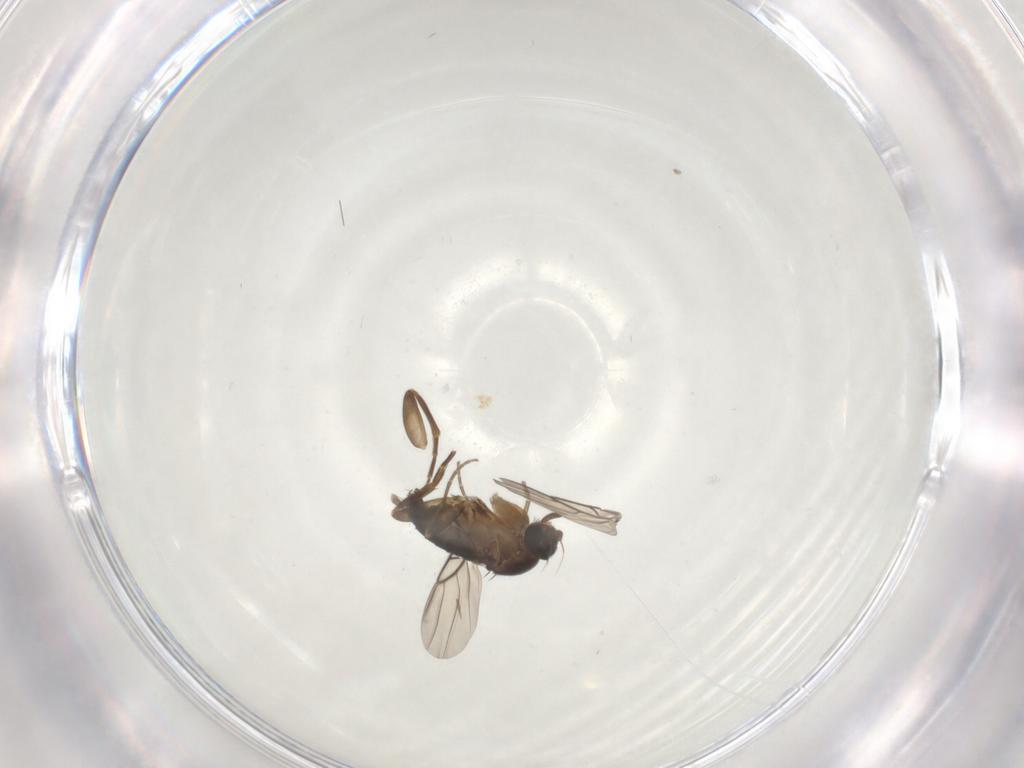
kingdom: Animalia
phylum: Arthropoda
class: Insecta
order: Diptera
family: Phoridae
